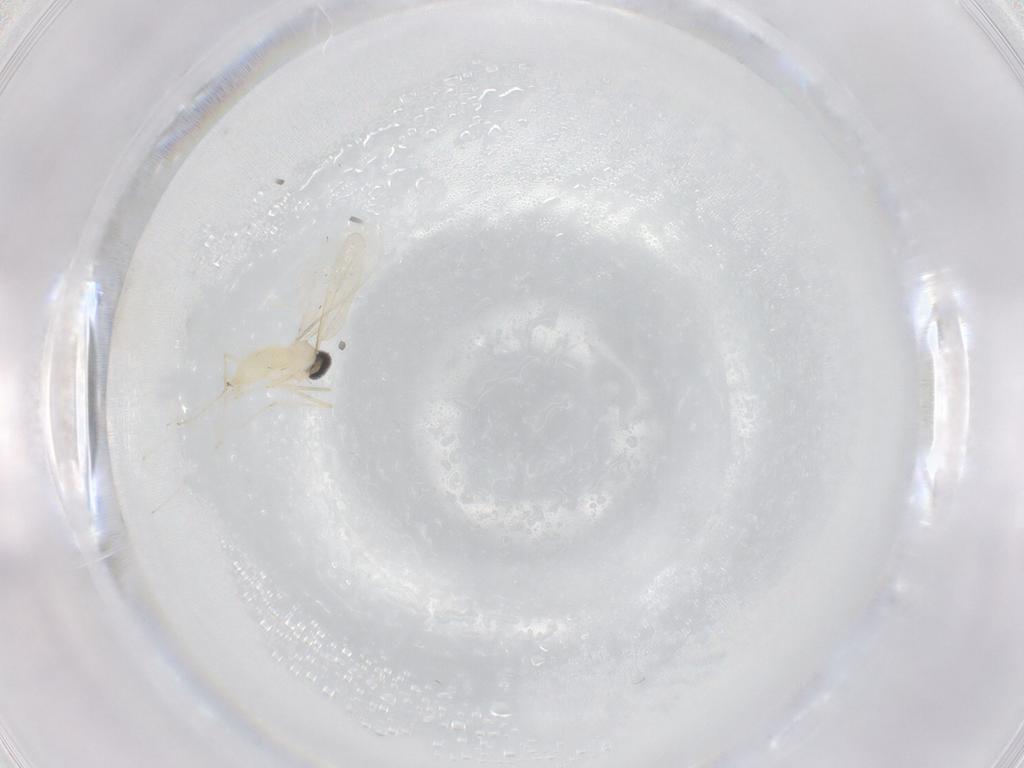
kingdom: Animalia
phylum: Arthropoda
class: Insecta
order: Diptera
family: Cecidomyiidae
